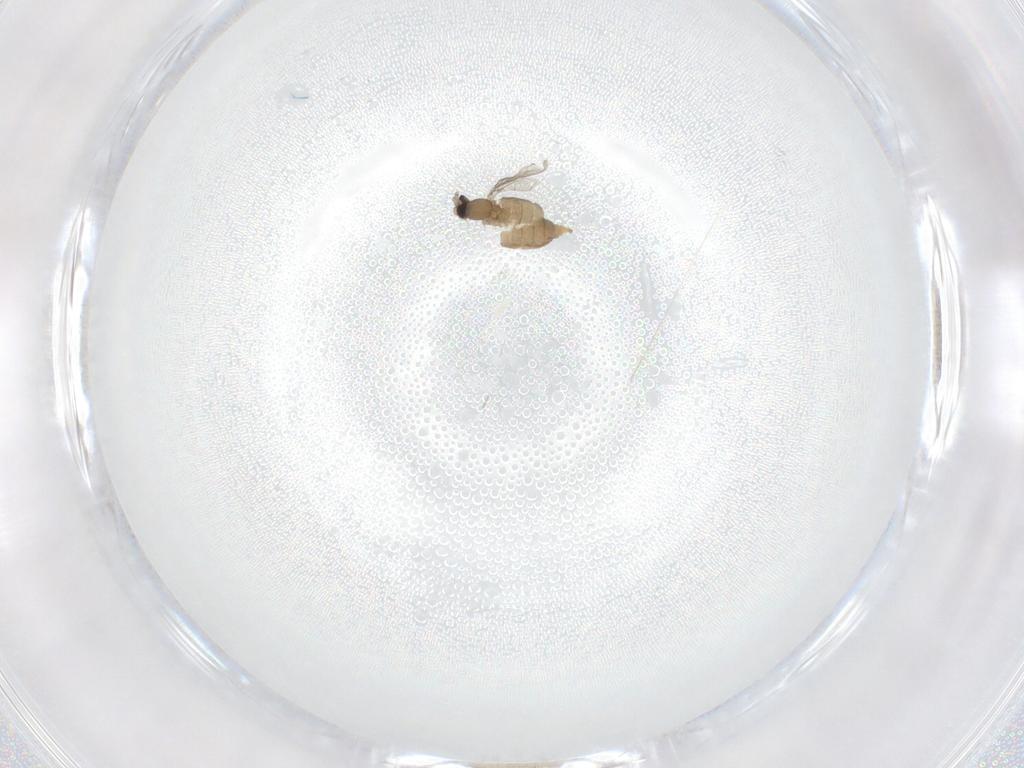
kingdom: Animalia
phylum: Arthropoda
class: Insecta
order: Diptera
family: Cecidomyiidae
